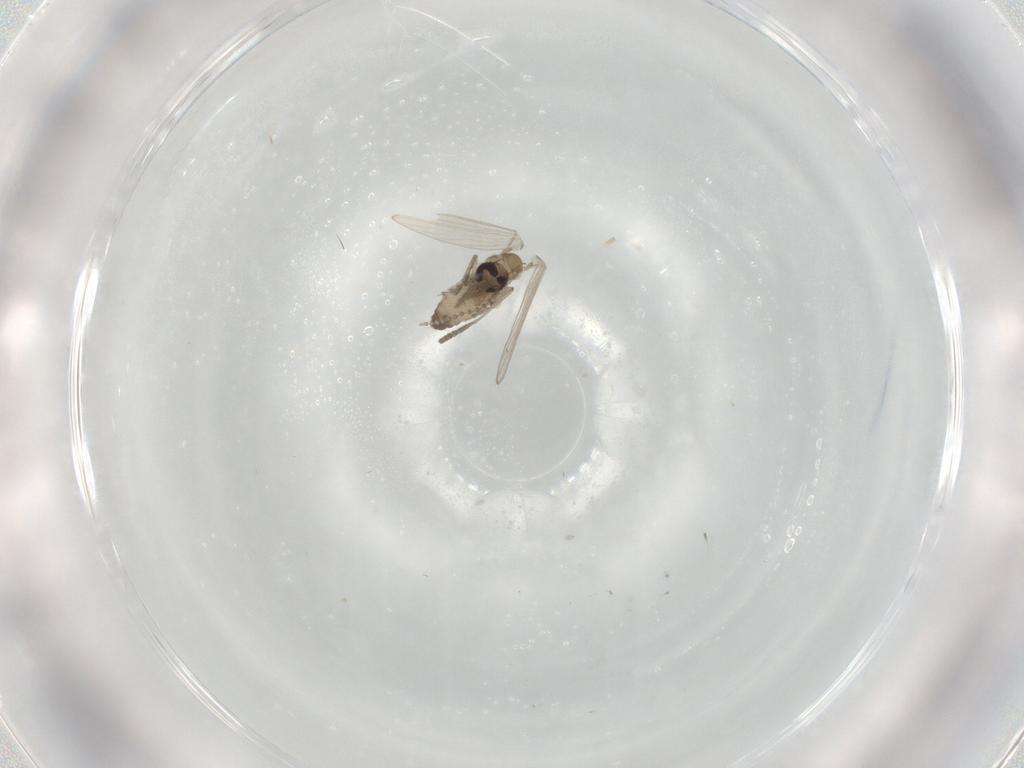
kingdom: Animalia
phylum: Arthropoda
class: Insecta
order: Diptera
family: Psychodidae
